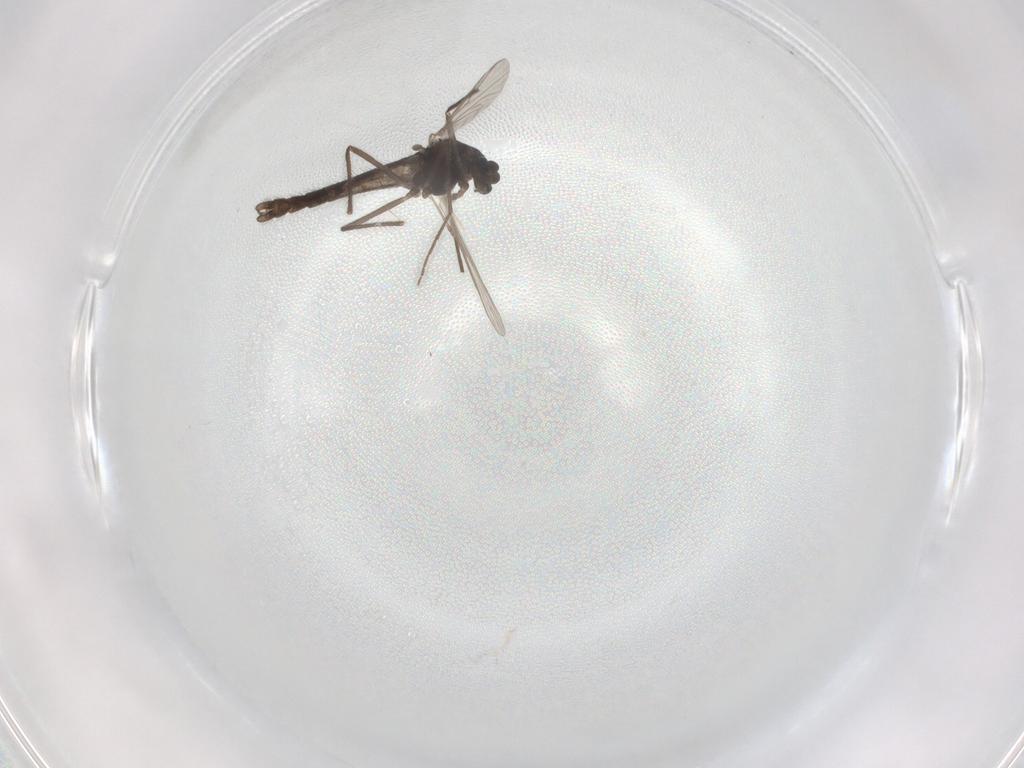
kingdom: Animalia
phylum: Arthropoda
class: Insecta
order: Diptera
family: Chironomidae
